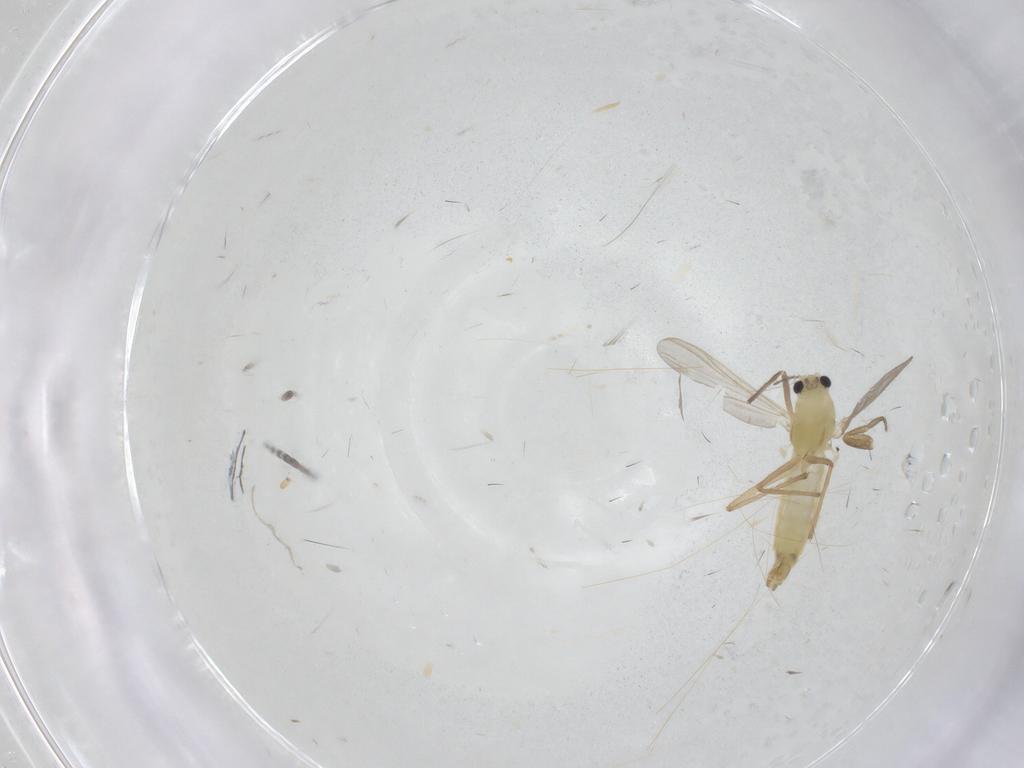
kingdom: Animalia
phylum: Arthropoda
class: Insecta
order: Diptera
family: Chironomidae
